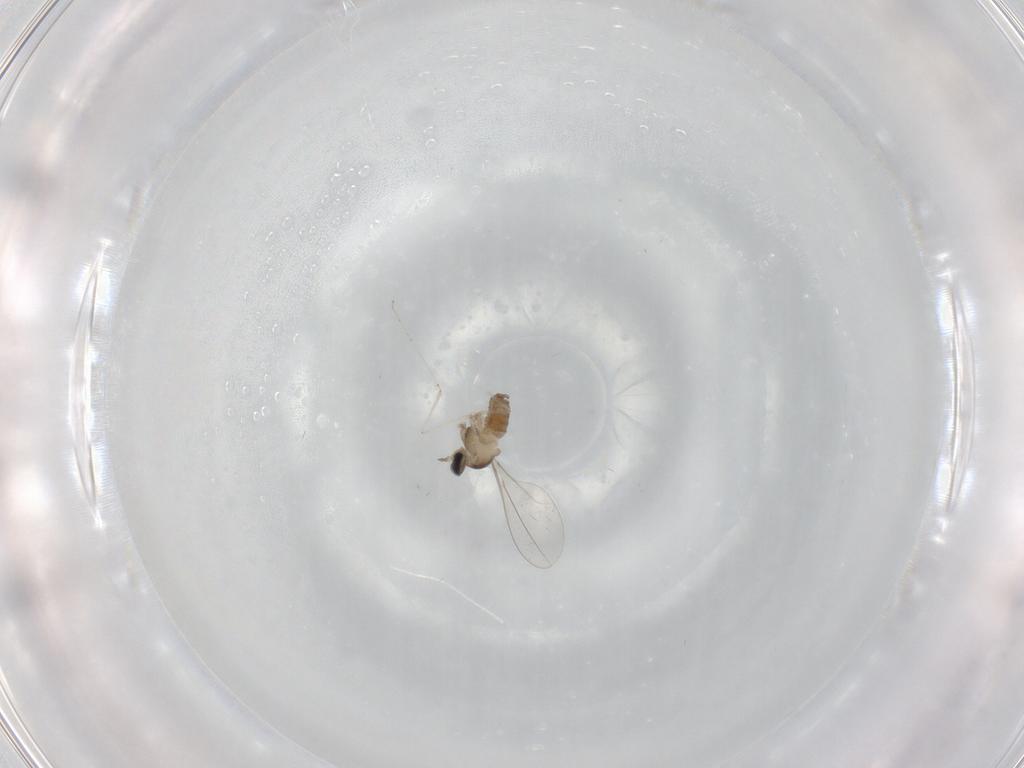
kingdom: Animalia
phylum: Arthropoda
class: Insecta
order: Diptera
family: Cecidomyiidae
